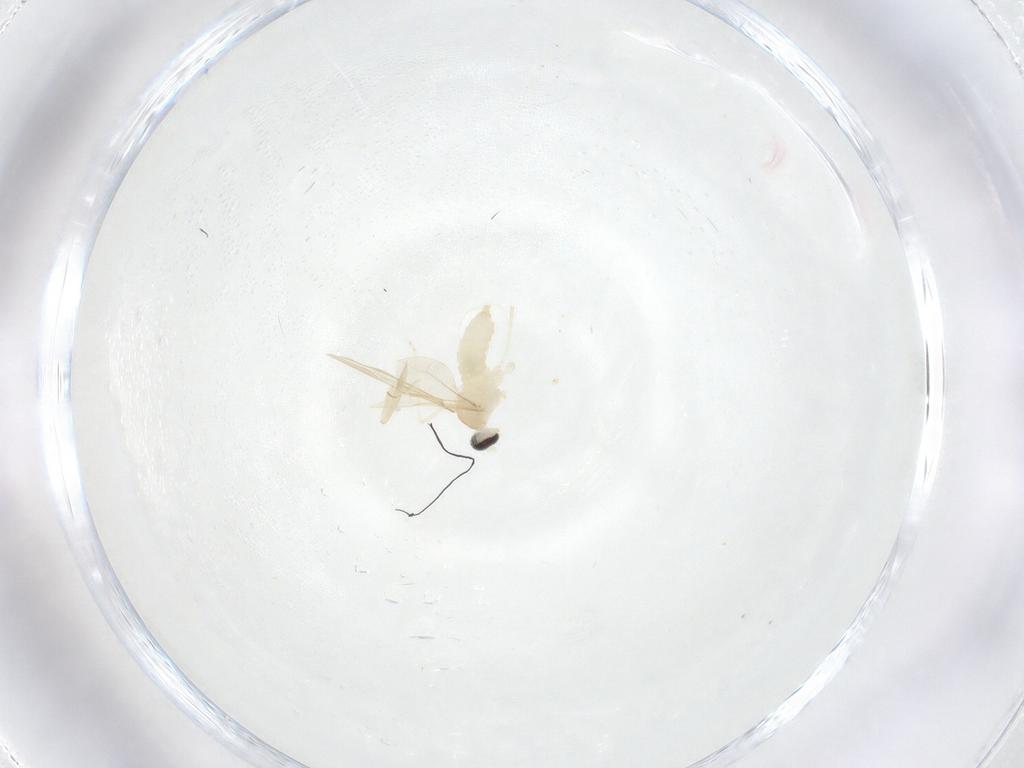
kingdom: Animalia
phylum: Arthropoda
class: Insecta
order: Diptera
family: Cecidomyiidae
